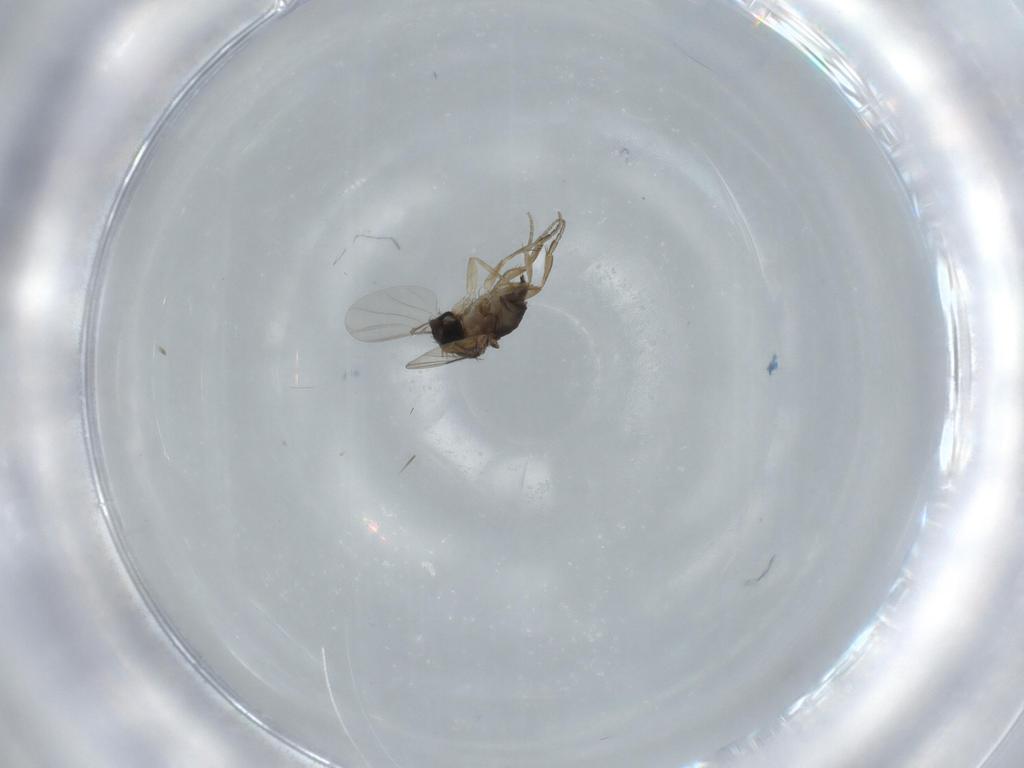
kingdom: Animalia
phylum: Arthropoda
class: Insecta
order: Diptera
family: Phoridae
